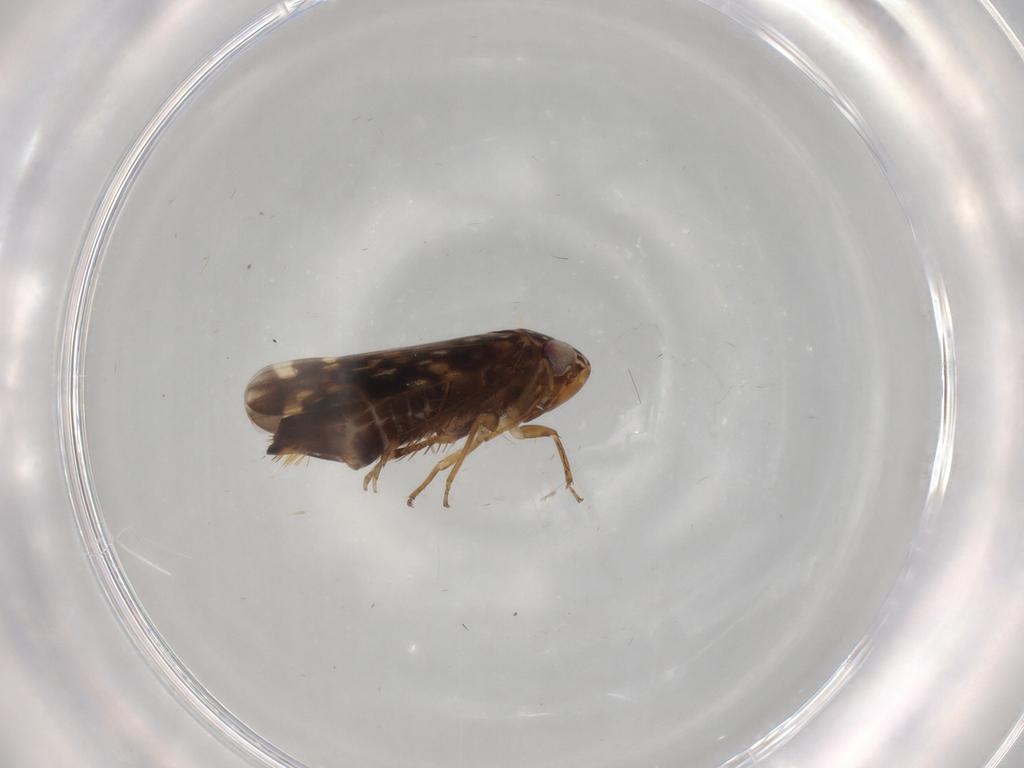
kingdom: Animalia
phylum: Arthropoda
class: Insecta
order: Hemiptera
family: Cicadellidae
